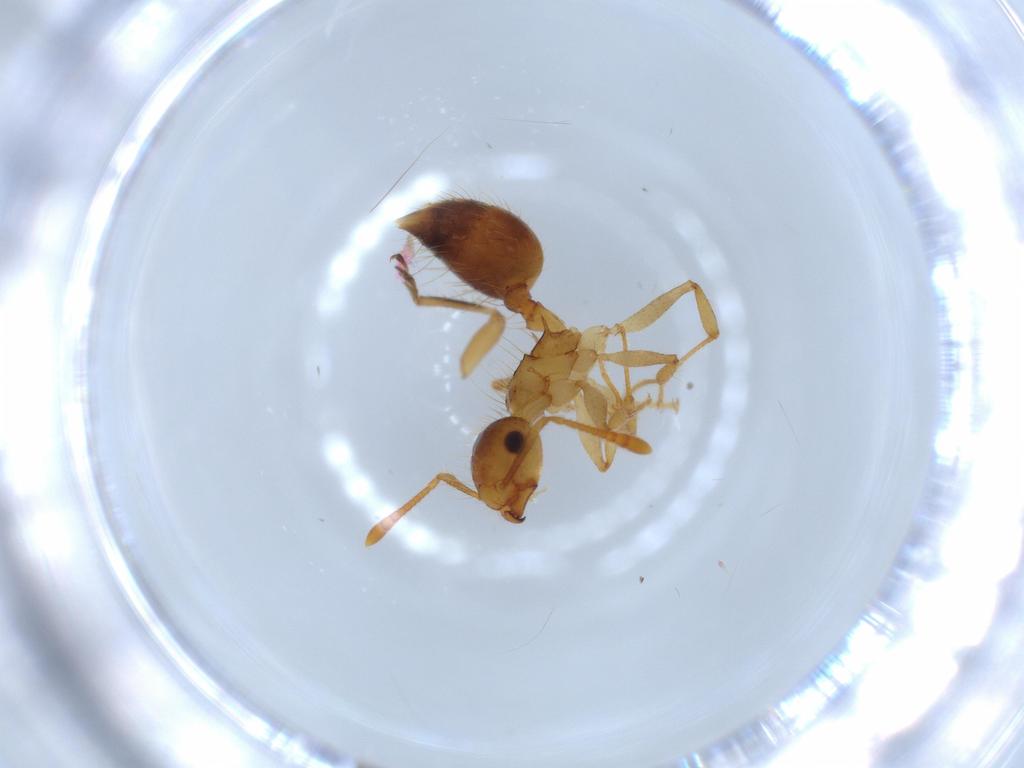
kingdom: Animalia
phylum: Arthropoda
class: Insecta
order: Hymenoptera
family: Formicidae
